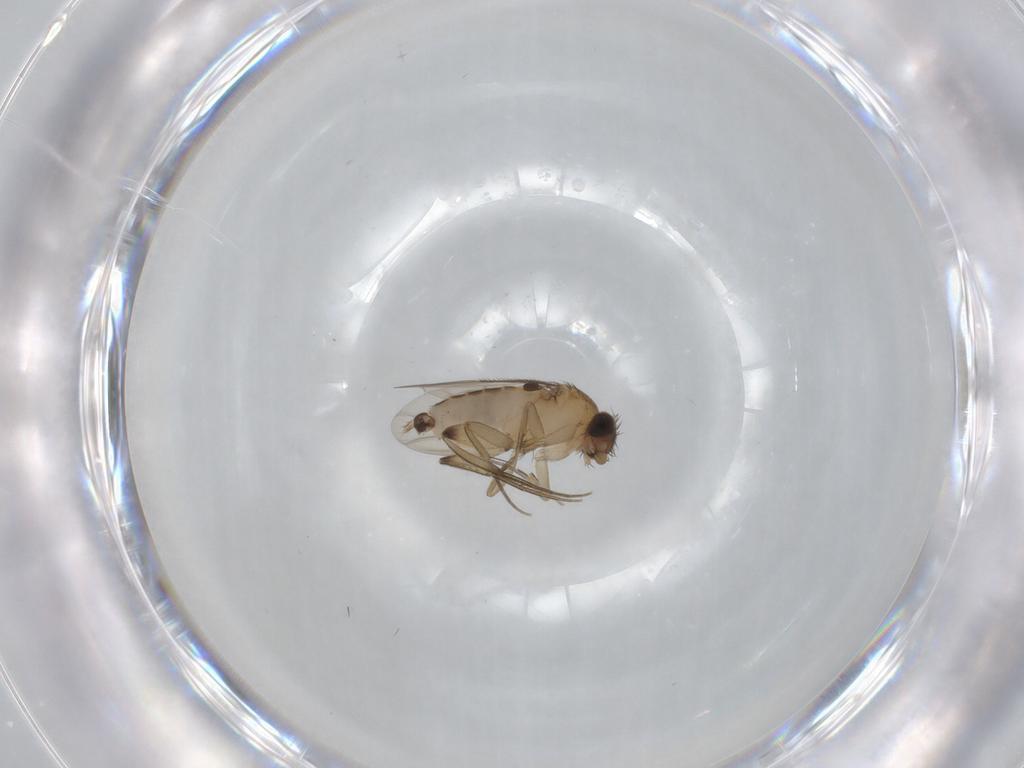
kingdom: Animalia
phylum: Arthropoda
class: Insecta
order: Diptera
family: Phoridae
